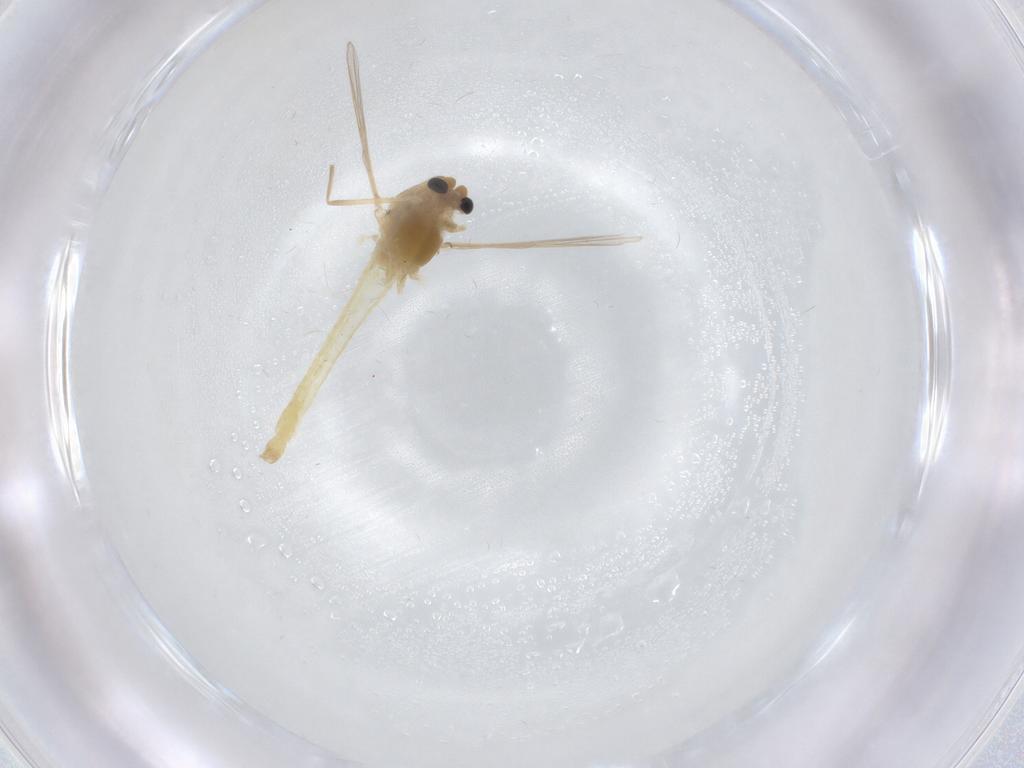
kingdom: Animalia
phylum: Arthropoda
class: Insecta
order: Diptera
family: Chironomidae
